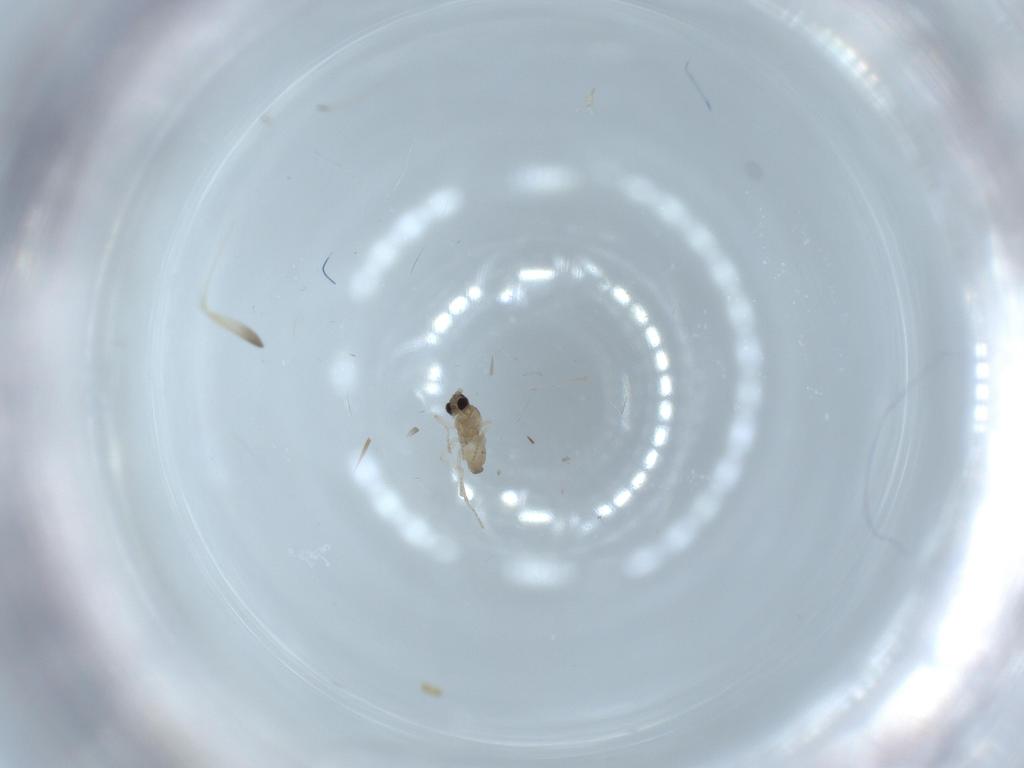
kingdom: Animalia
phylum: Arthropoda
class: Insecta
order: Diptera
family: Cecidomyiidae
